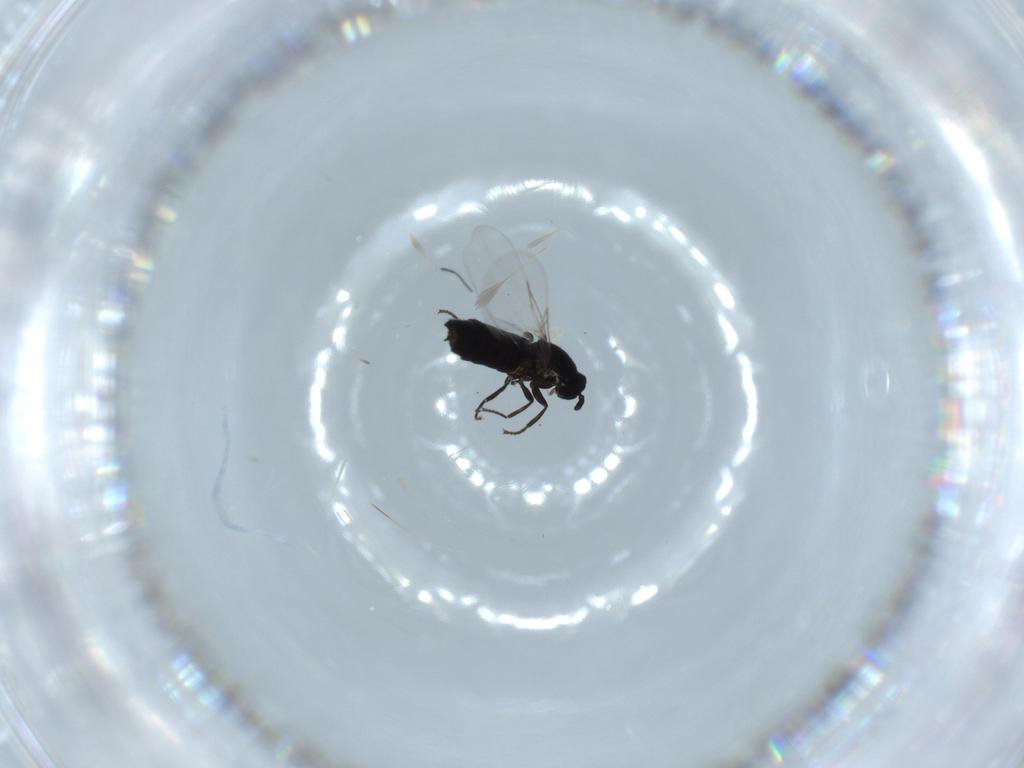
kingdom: Animalia
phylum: Arthropoda
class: Insecta
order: Diptera
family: Scatopsidae
